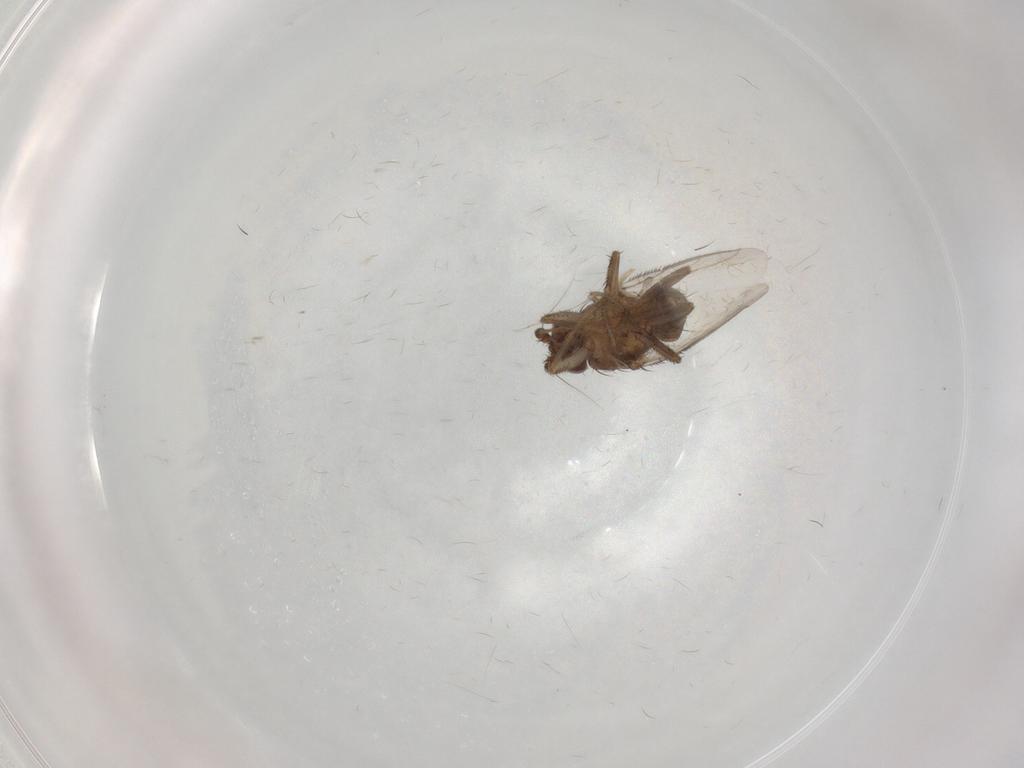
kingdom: Animalia
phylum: Arthropoda
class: Insecta
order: Diptera
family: Sphaeroceridae
